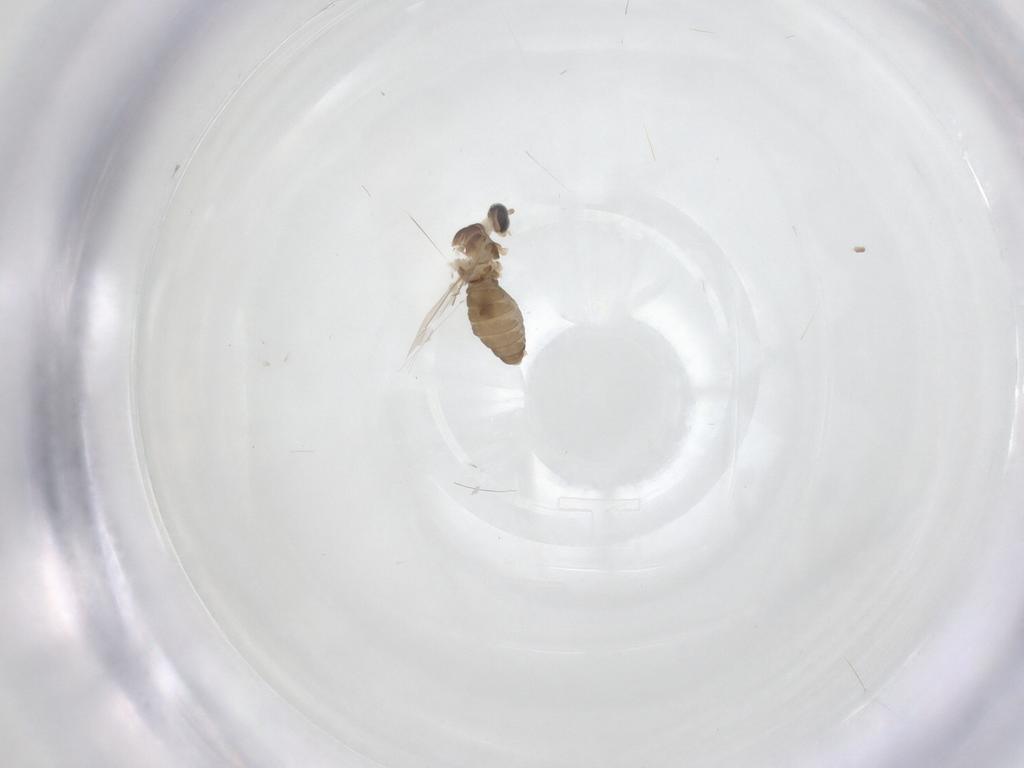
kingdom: Animalia
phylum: Arthropoda
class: Insecta
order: Diptera
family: Cecidomyiidae
